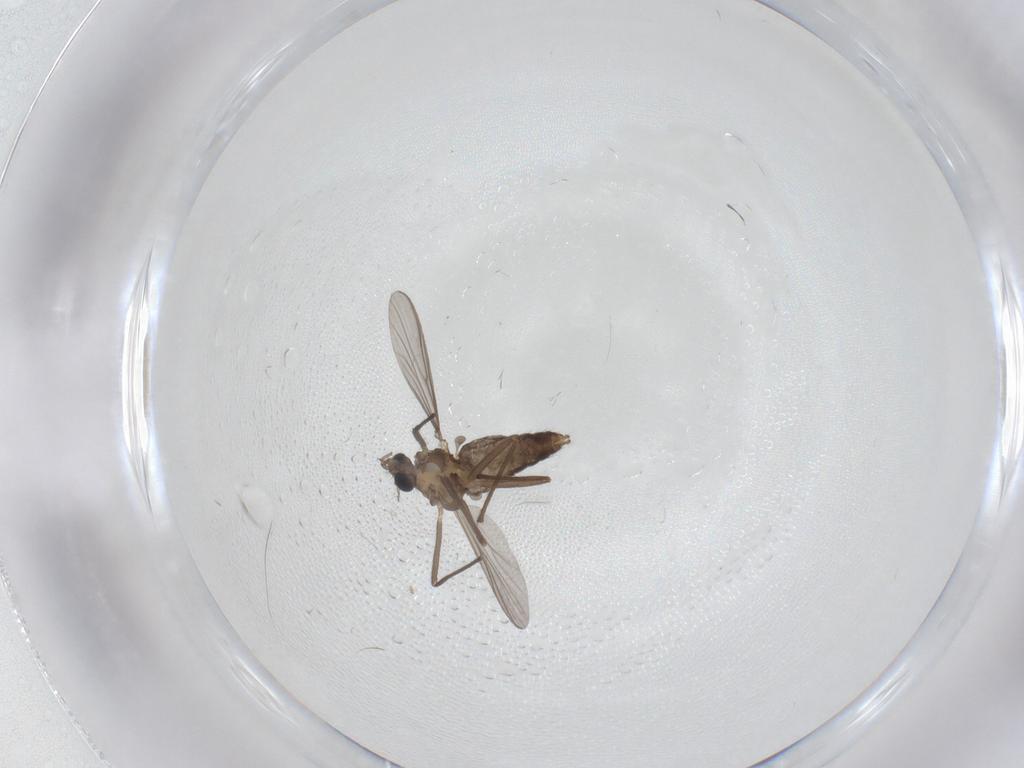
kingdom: Animalia
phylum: Arthropoda
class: Insecta
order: Diptera
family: Chironomidae
